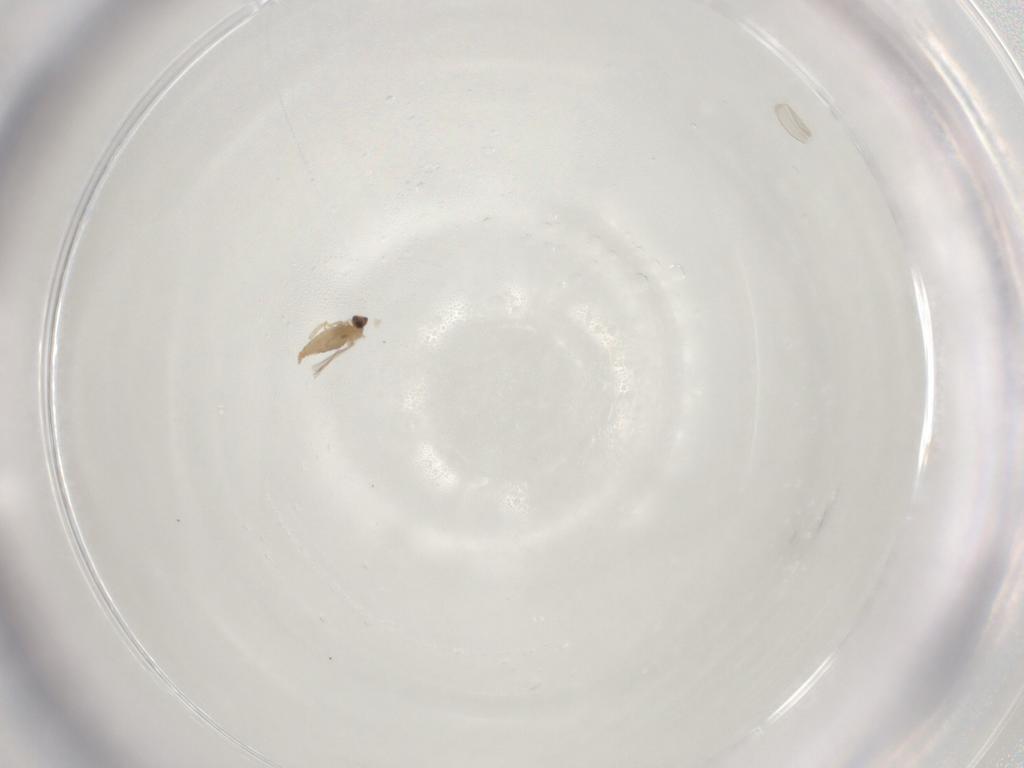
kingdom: Animalia
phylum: Arthropoda
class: Insecta
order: Diptera
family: Cecidomyiidae
